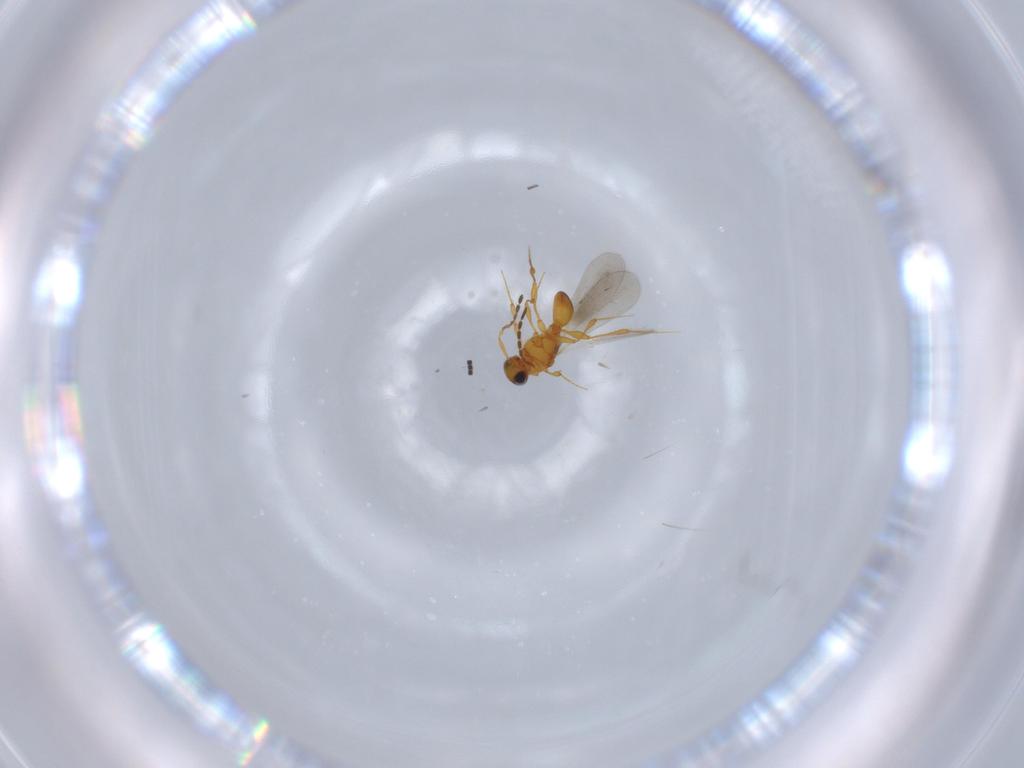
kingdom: Animalia
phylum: Arthropoda
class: Insecta
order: Hymenoptera
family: Platygastridae
